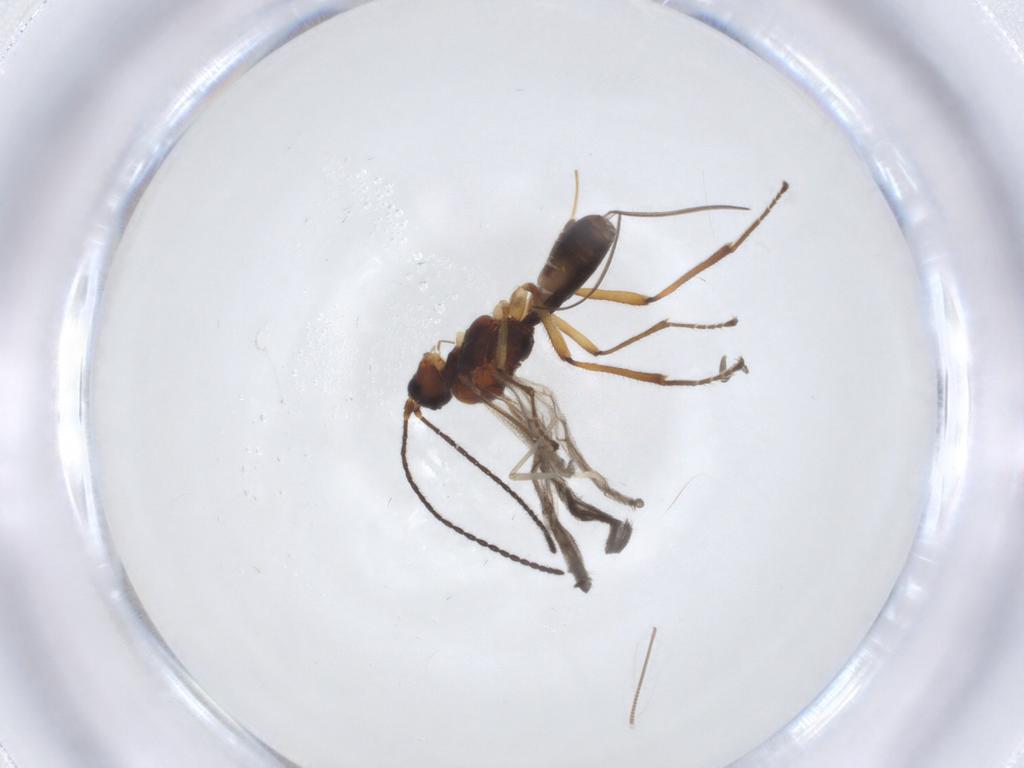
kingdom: Animalia
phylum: Arthropoda
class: Insecta
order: Hymenoptera
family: Braconidae
